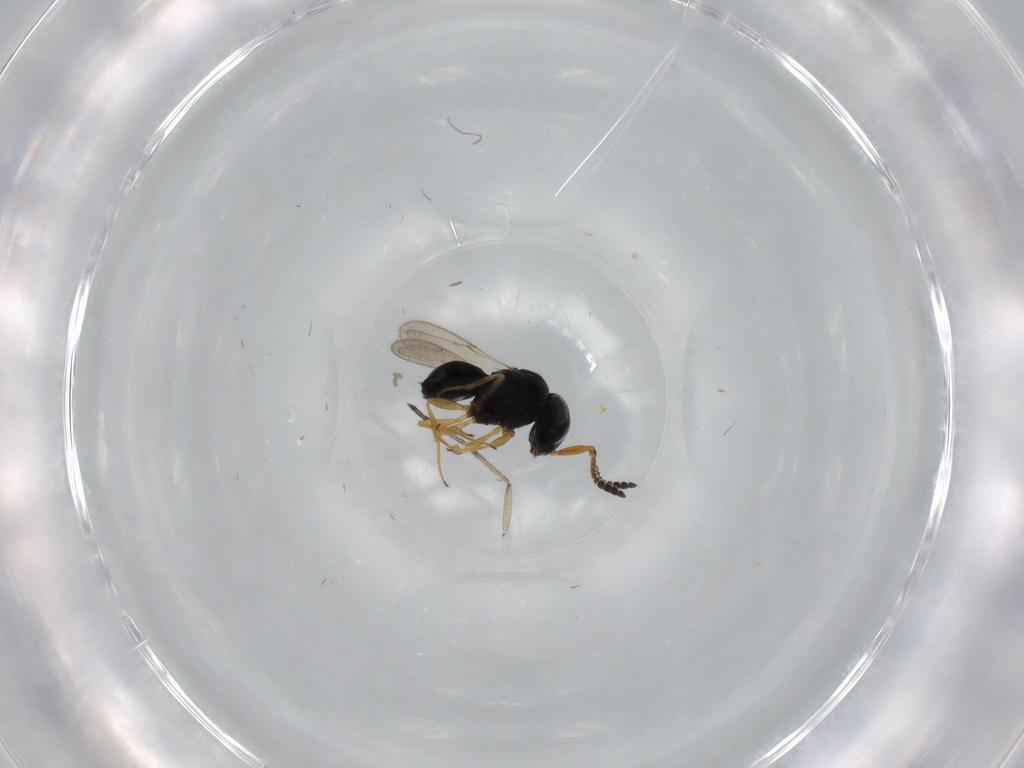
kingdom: Animalia
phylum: Arthropoda
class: Insecta
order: Hymenoptera
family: Scelionidae
